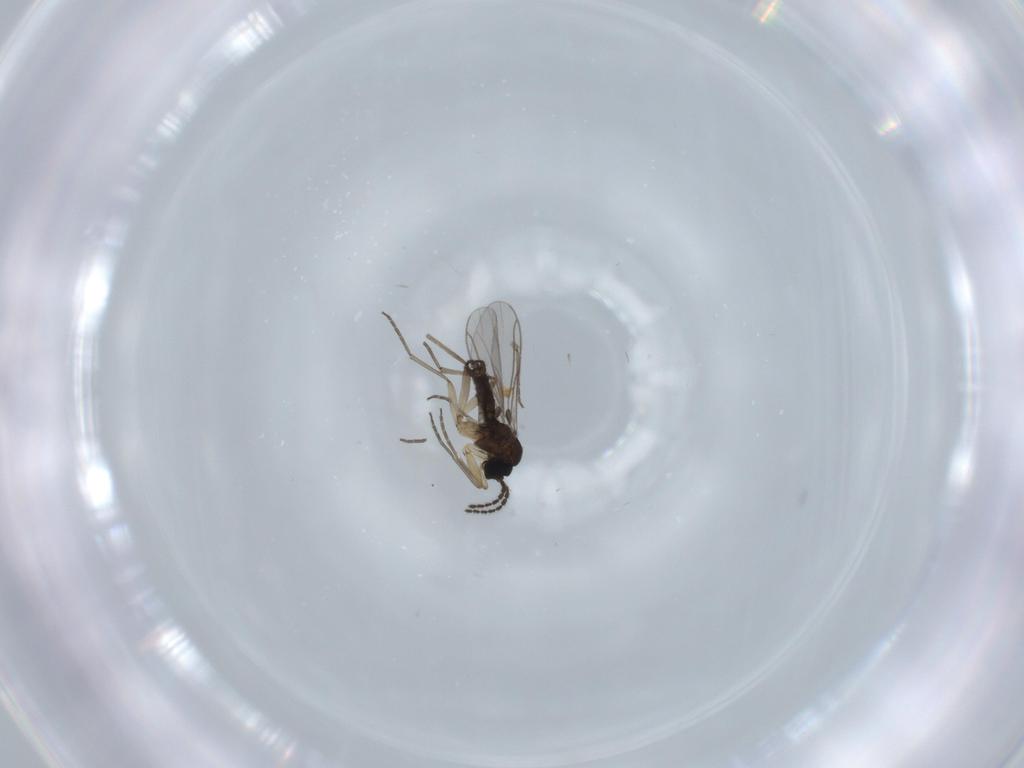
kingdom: Animalia
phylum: Arthropoda
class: Insecta
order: Diptera
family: Sciaridae
